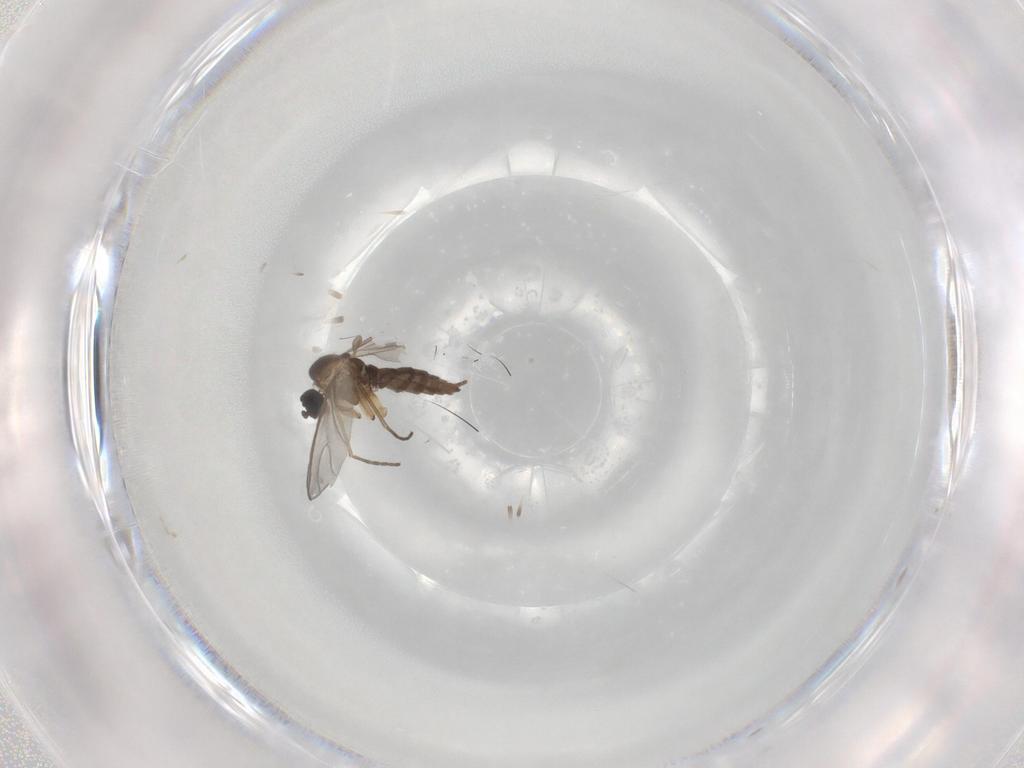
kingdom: Animalia
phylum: Arthropoda
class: Insecta
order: Diptera
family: Sciaridae
